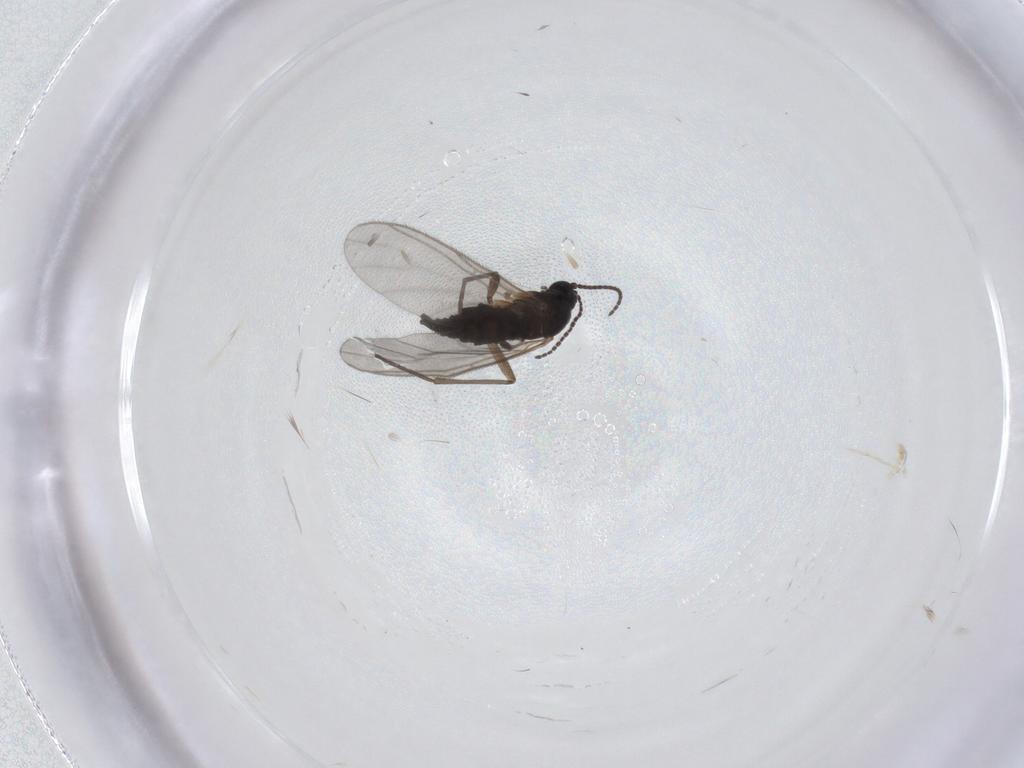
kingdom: Animalia
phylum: Arthropoda
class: Insecta
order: Diptera
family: Sciaridae
